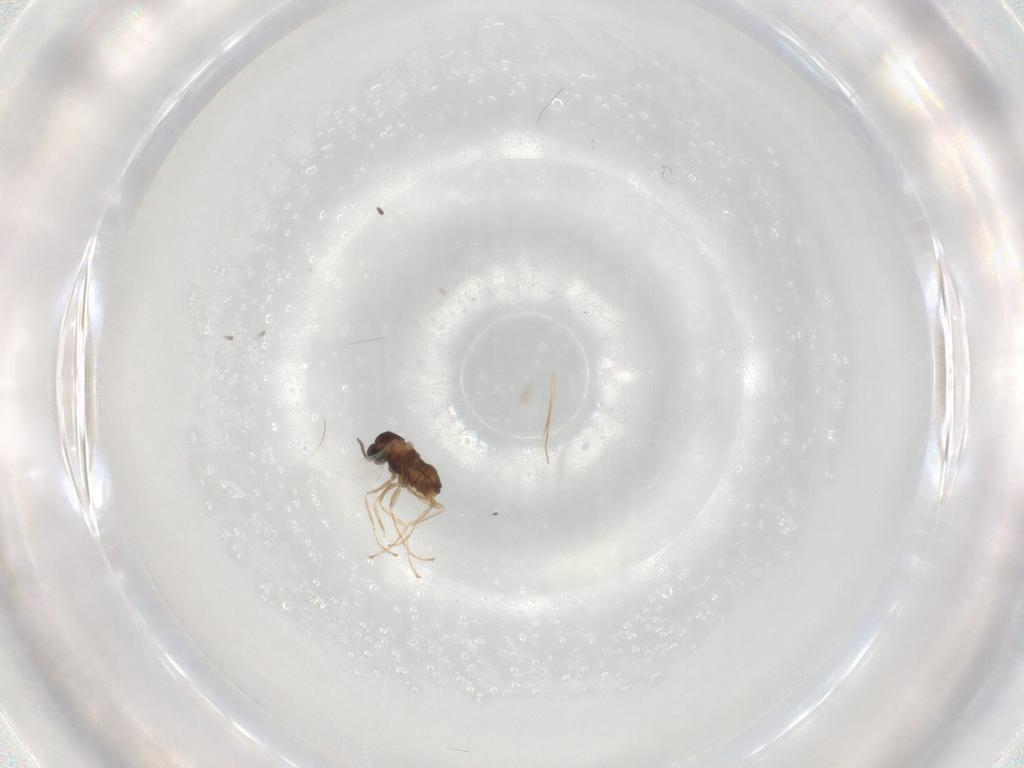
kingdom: Animalia
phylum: Arthropoda
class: Insecta
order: Diptera
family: Cecidomyiidae
